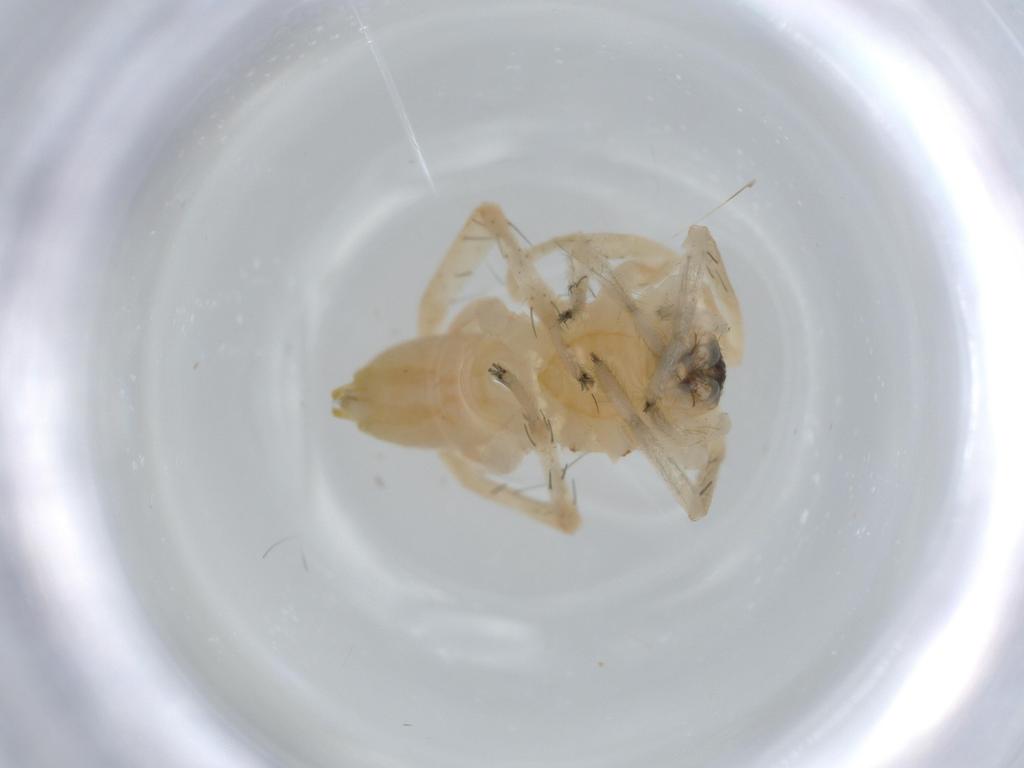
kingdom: Animalia
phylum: Arthropoda
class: Arachnida
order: Araneae
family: Anyphaenidae
